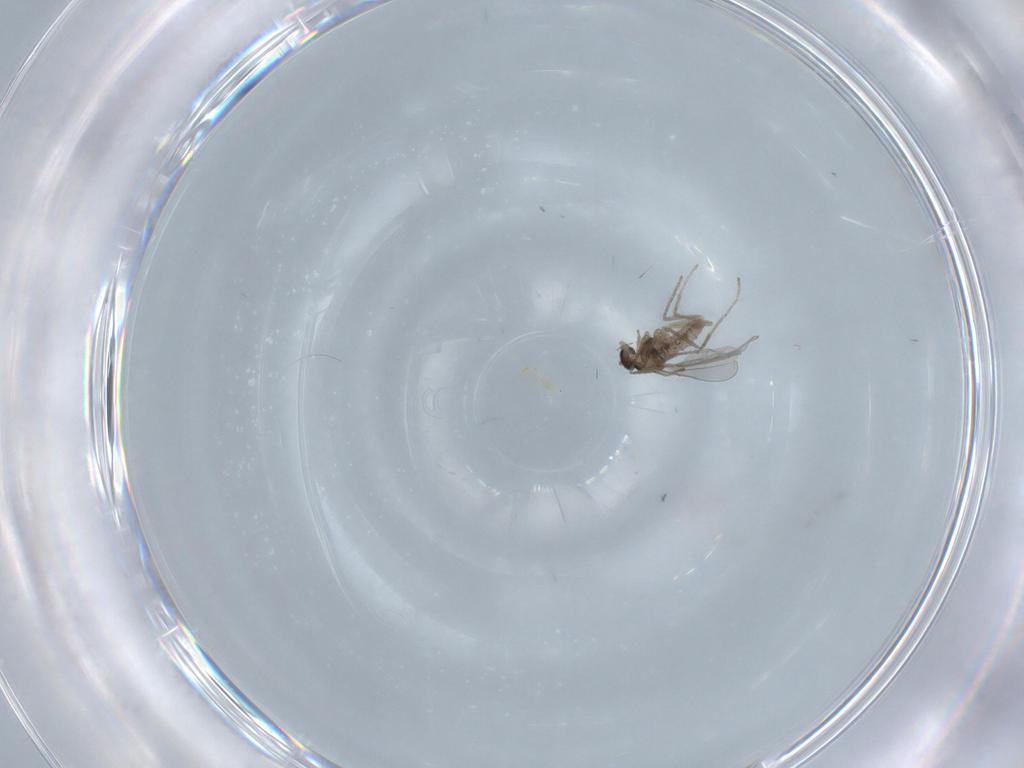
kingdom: Animalia
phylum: Arthropoda
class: Insecta
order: Diptera
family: Cecidomyiidae
